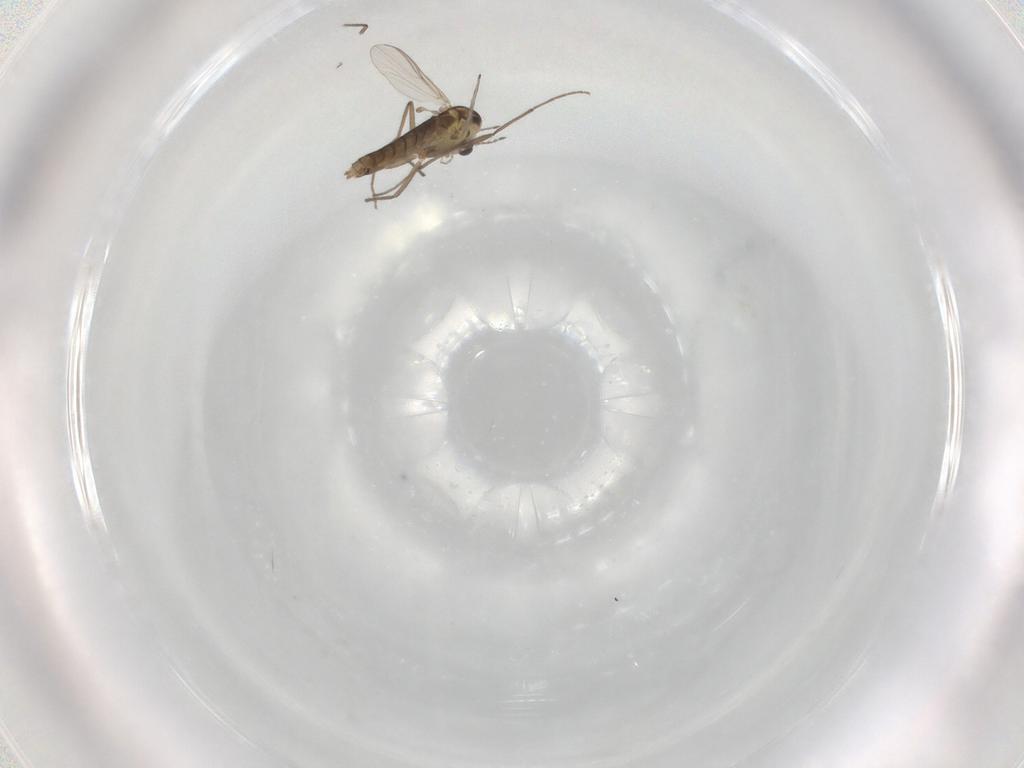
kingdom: Animalia
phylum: Arthropoda
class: Insecta
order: Diptera
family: Chironomidae
